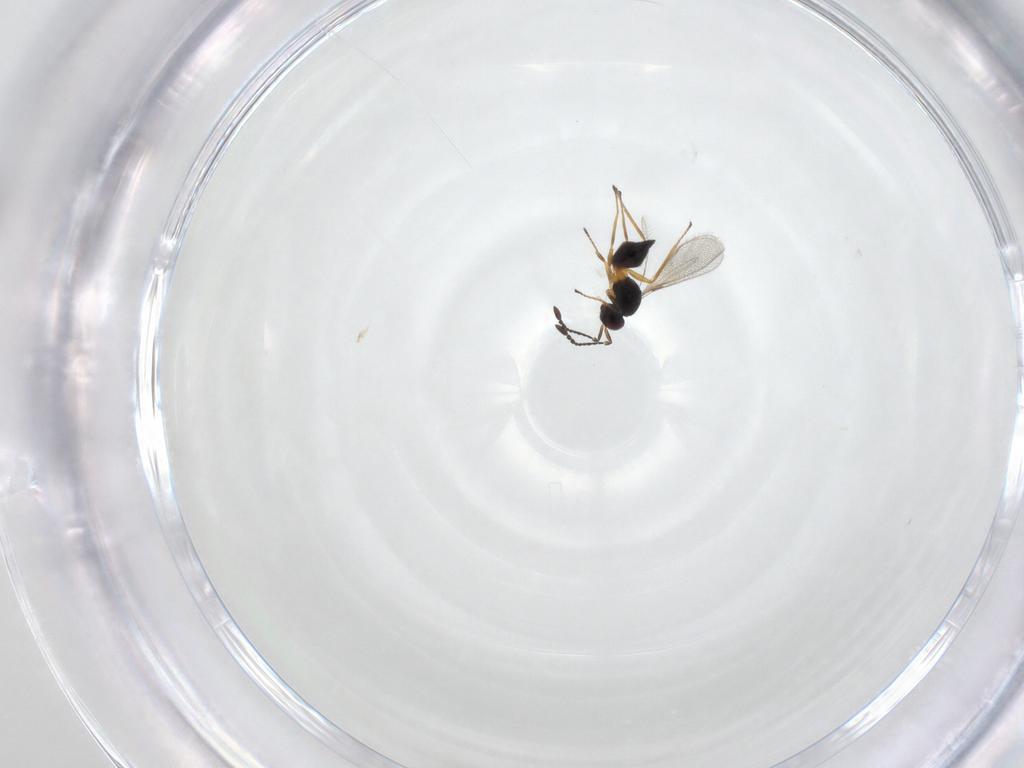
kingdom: Animalia
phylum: Arthropoda
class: Insecta
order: Hymenoptera
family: Mymaridae
